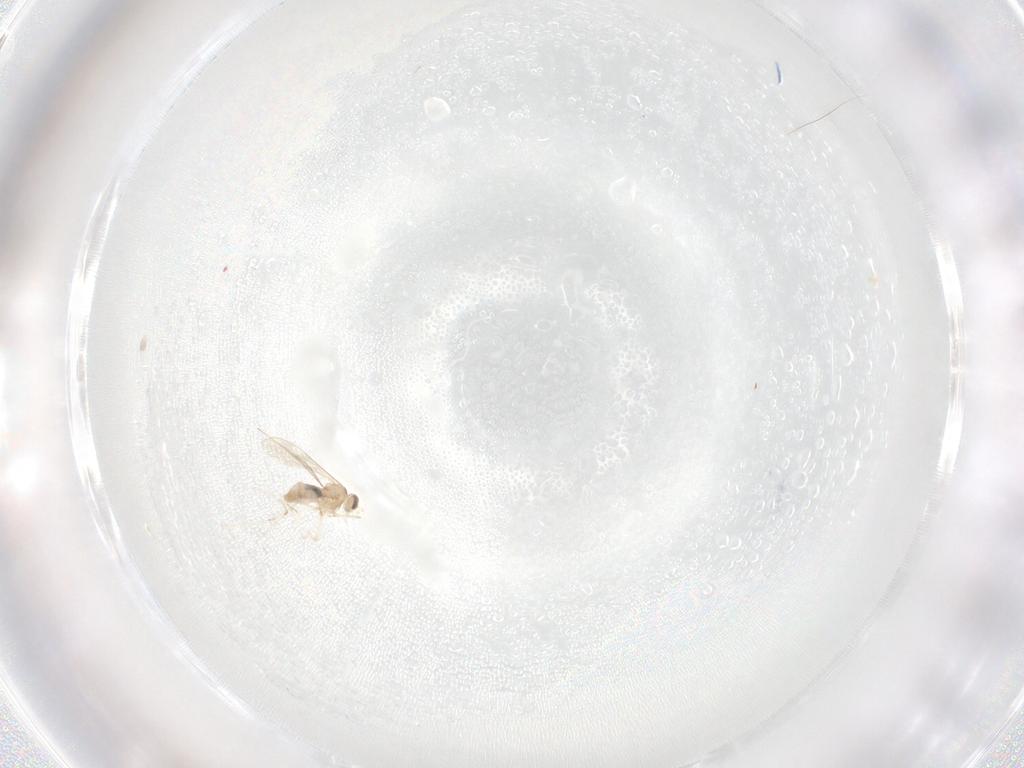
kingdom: Animalia
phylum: Arthropoda
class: Insecta
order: Diptera
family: Cecidomyiidae
